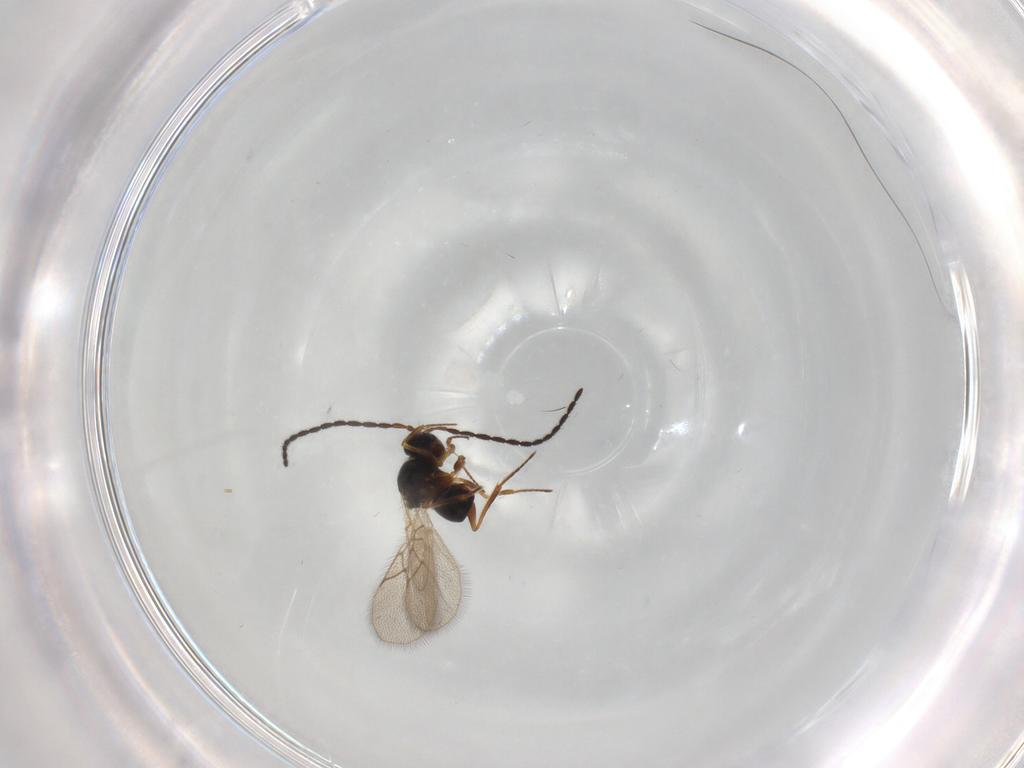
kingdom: Animalia
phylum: Arthropoda
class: Insecta
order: Hymenoptera
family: Figitidae
